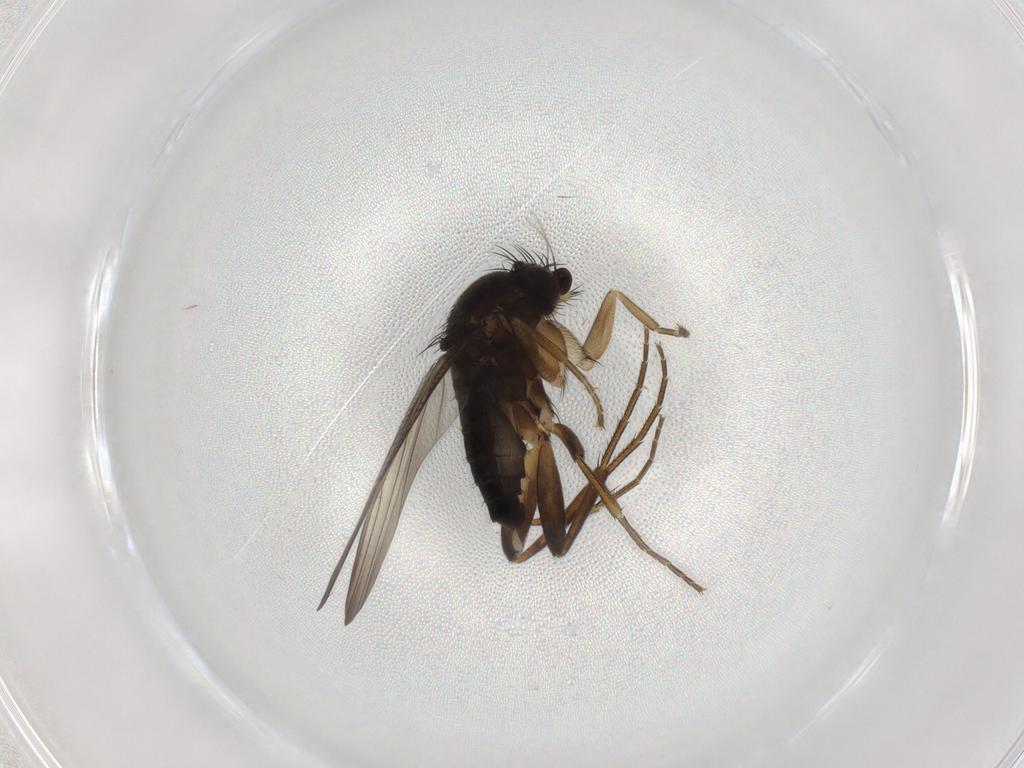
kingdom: Animalia
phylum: Arthropoda
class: Insecta
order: Diptera
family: Phoridae
